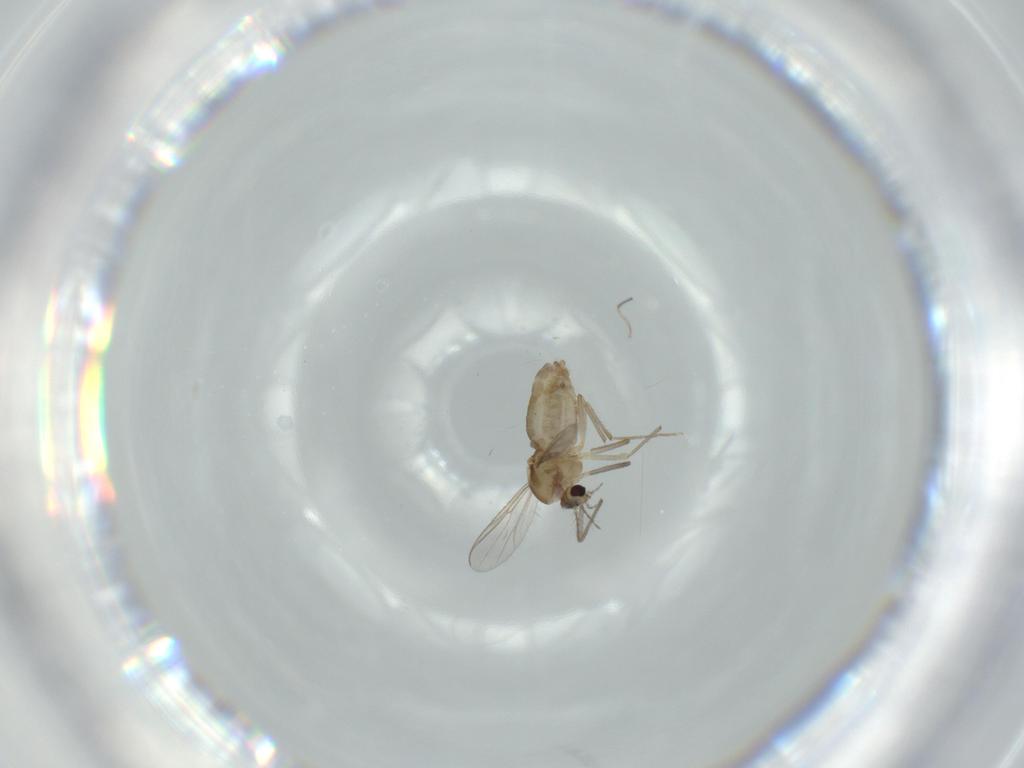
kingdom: Animalia
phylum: Arthropoda
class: Insecta
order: Diptera
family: Chironomidae
